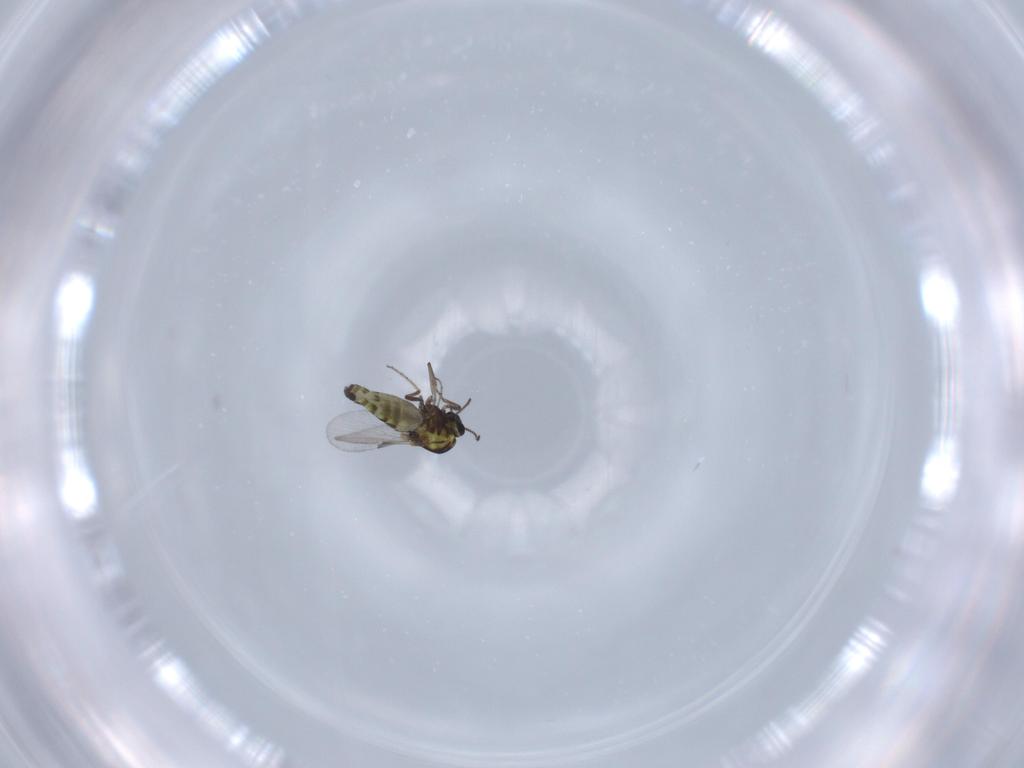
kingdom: Animalia
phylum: Arthropoda
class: Insecta
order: Diptera
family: Ceratopogonidae
